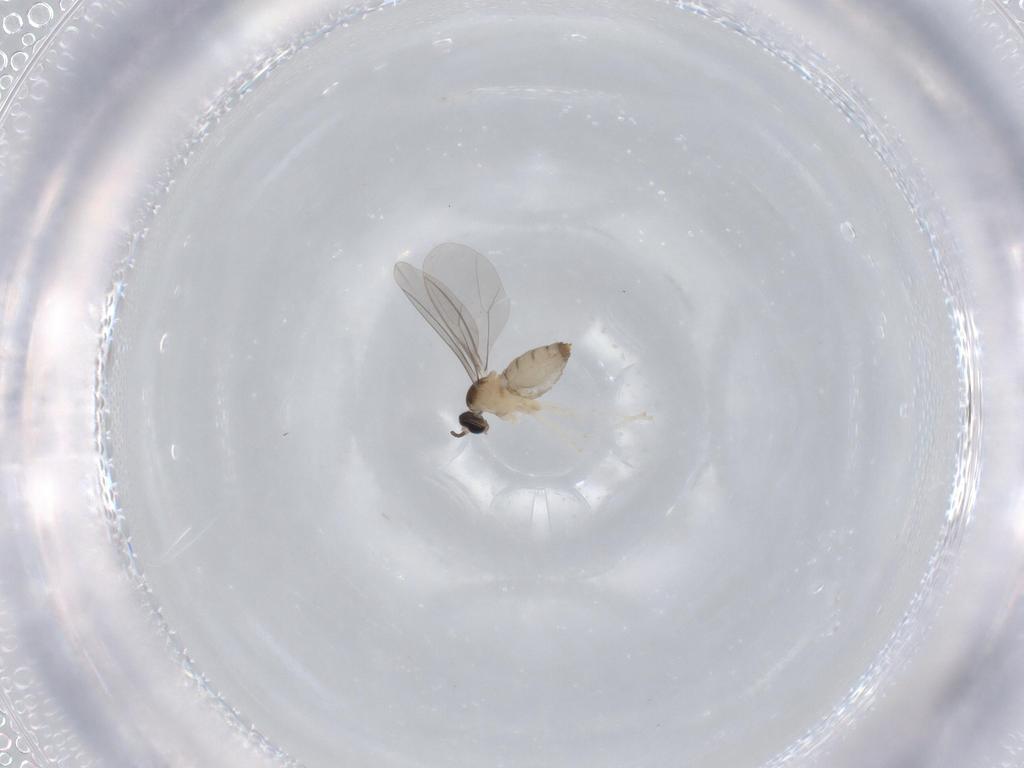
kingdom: Animalia
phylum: Arthropoda
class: Insecta
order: Diptera
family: Cecidomyiidae
